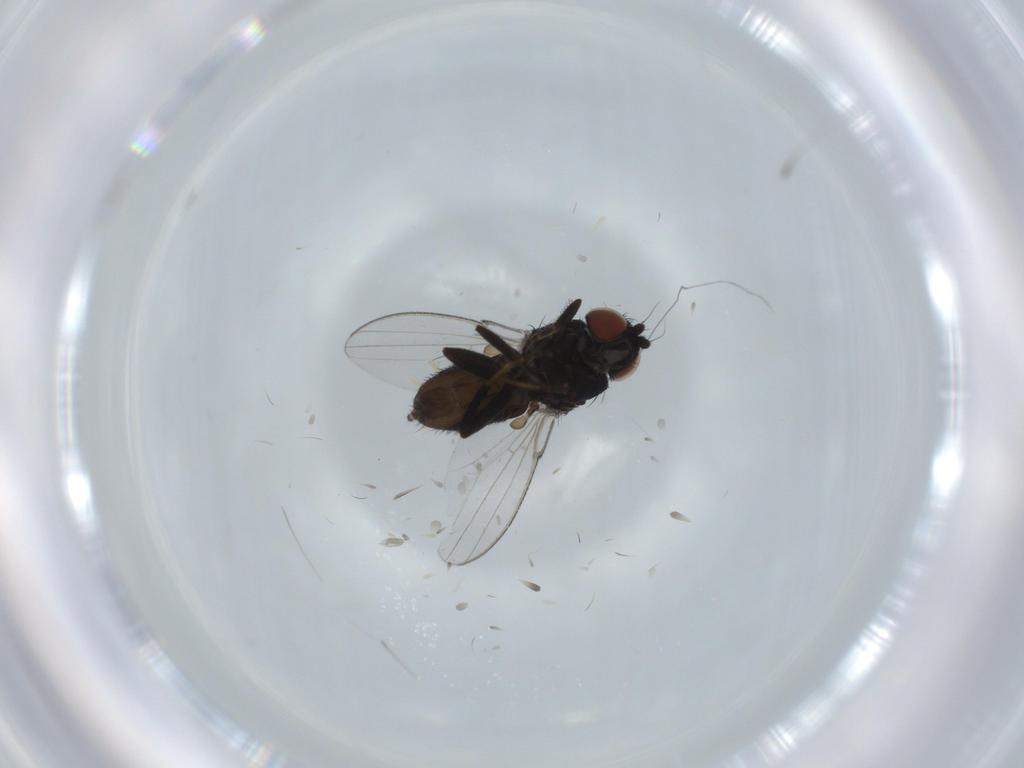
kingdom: Animalia
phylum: Arthropoda
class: Insecta
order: Diptera
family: Milichiidae
